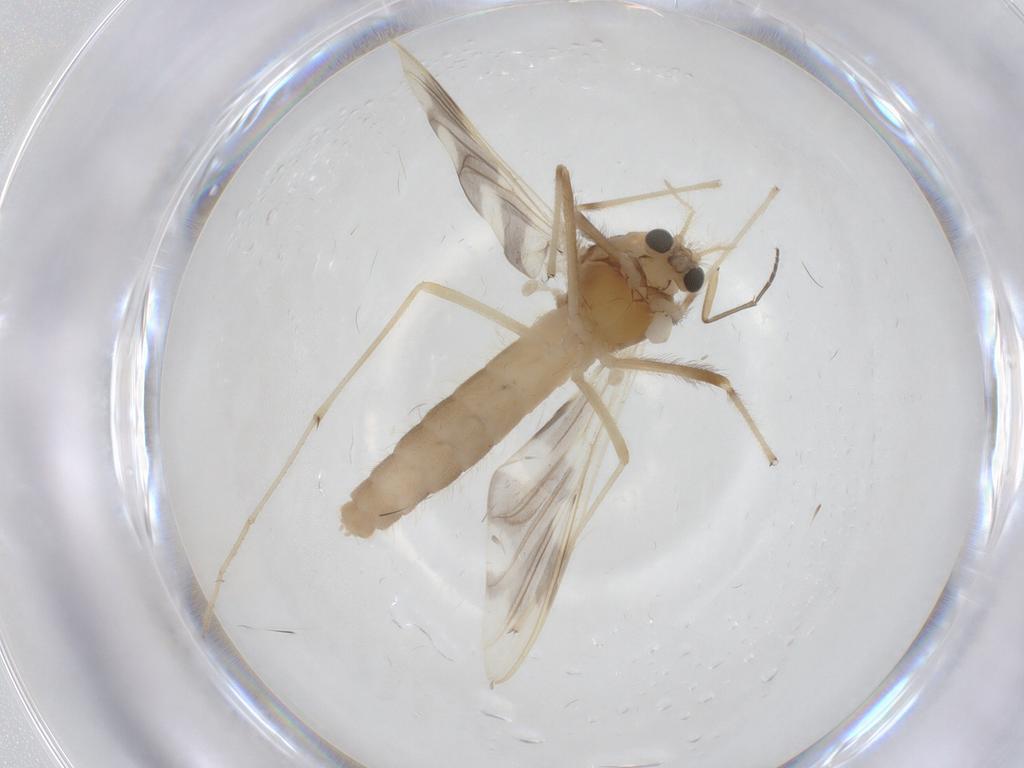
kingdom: Animalia
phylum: Arthropoda
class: Insecta
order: Diptera
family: Chironomidae
